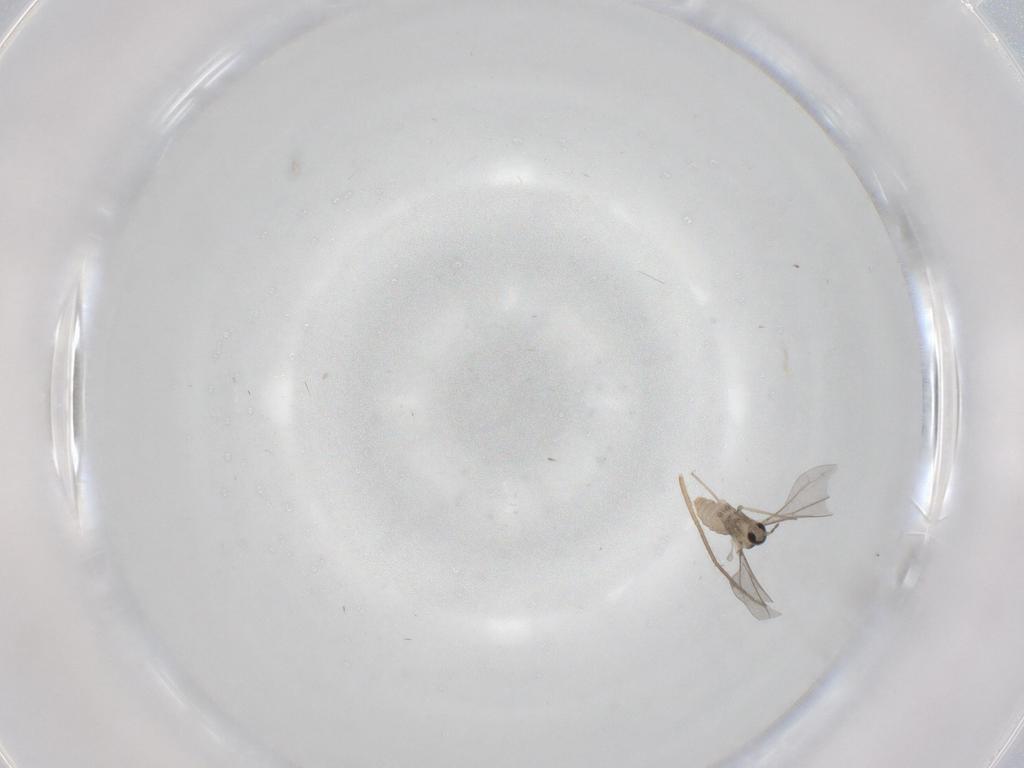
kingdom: Animalia
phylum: Arthropoda
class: Insecta
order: Diptera
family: Cecidomyiidae
